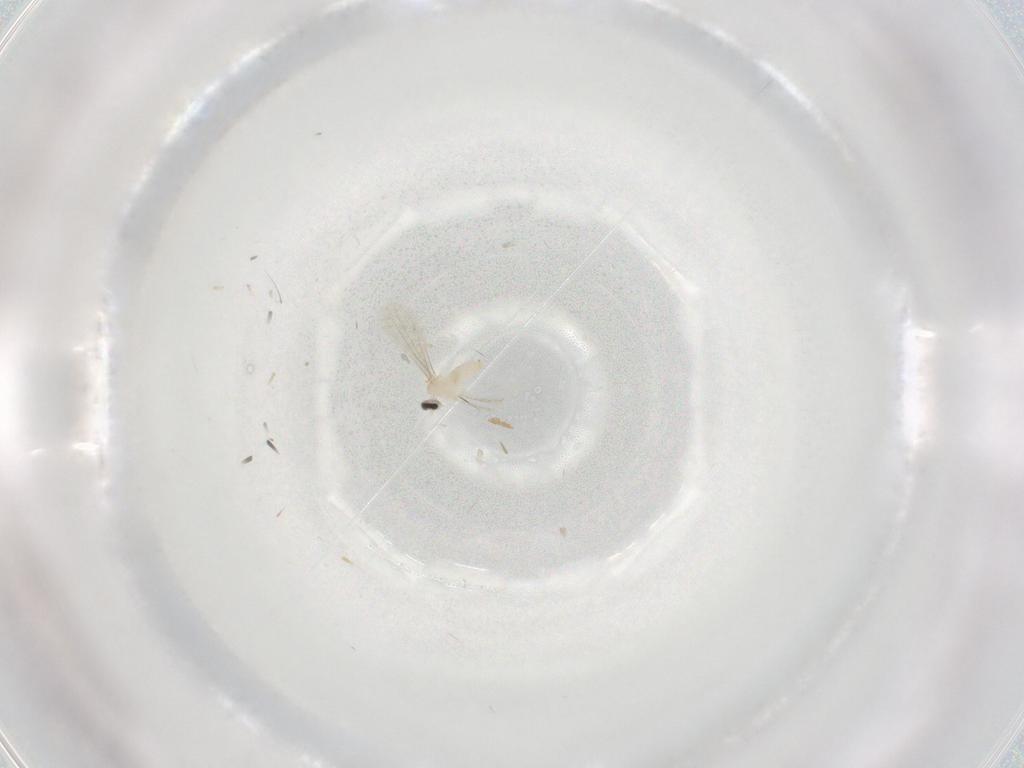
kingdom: Animalia
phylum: Arthropoda
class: Insecta
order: Diptera
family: Cecidomyiidae
